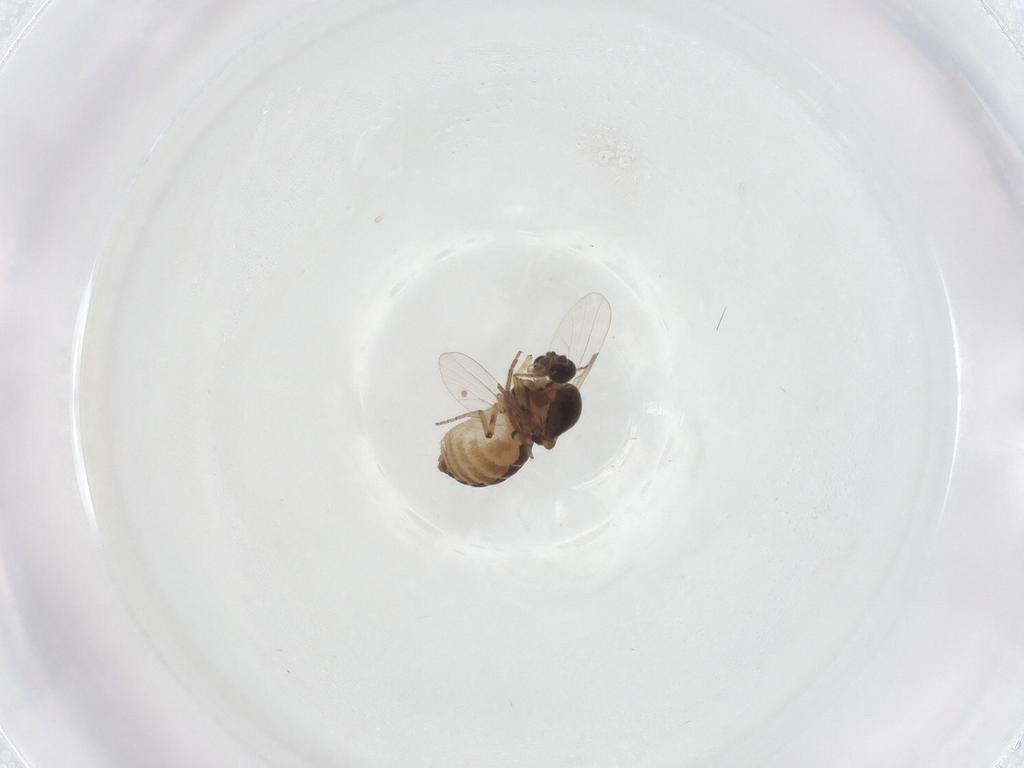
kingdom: Animalia
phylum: Arthropoda
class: Insecta
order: Diptera
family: Ceratopogonidae
